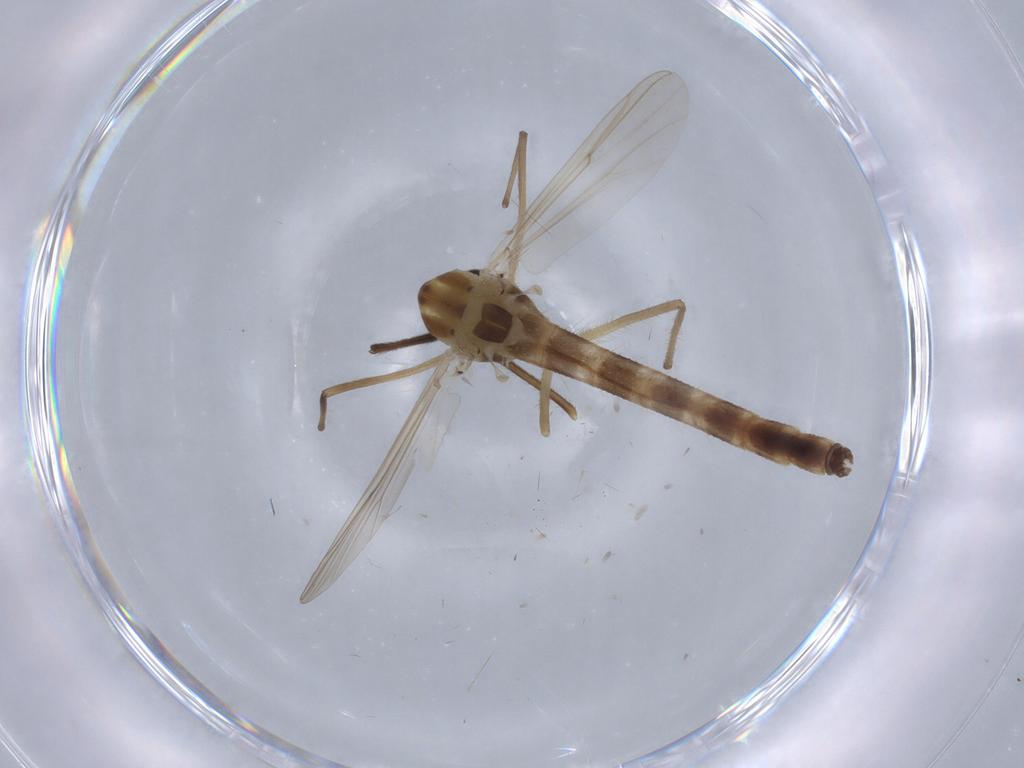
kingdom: Animalia
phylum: Arthropoda
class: Insecta
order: Diptera
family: Chironomidae
